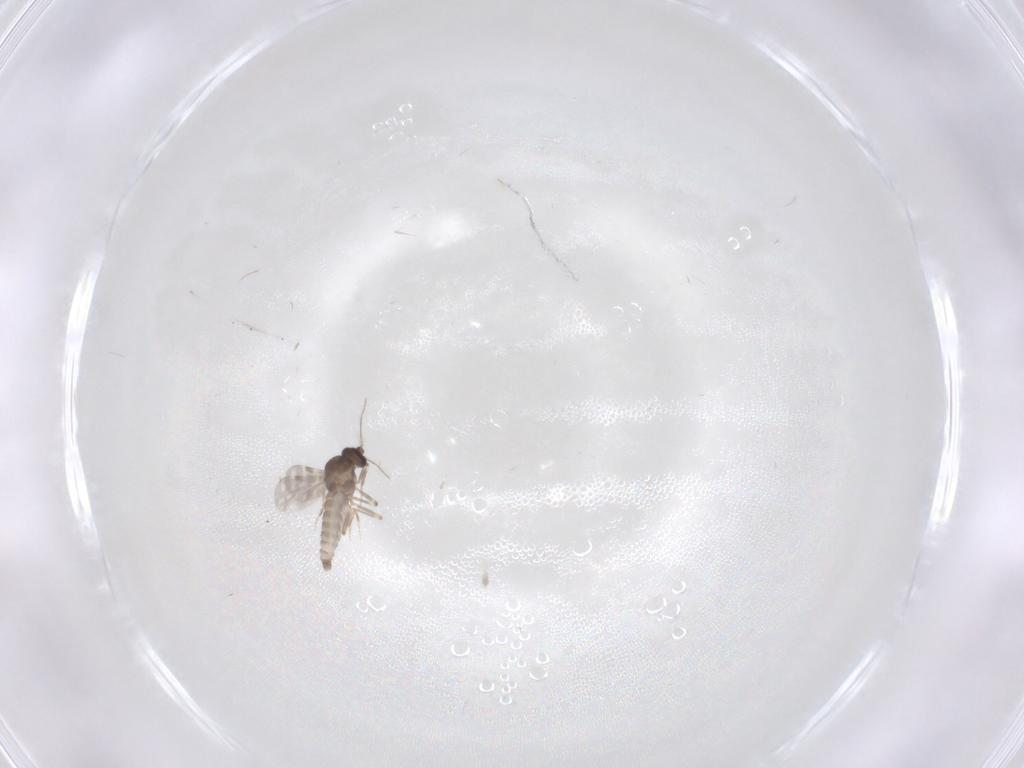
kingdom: Animalia
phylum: Arthropoda
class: Insecta
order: Diptera
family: Ceratopogonidae
